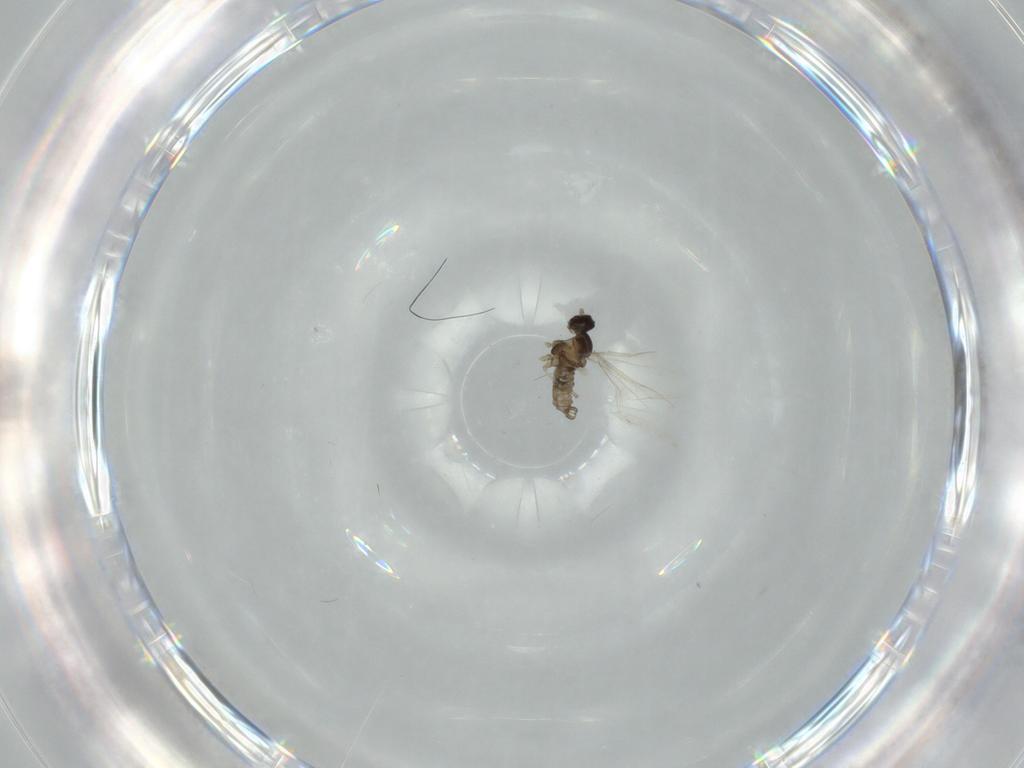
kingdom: Animalia
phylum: Arthropoda
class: Insecta
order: Diptera
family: Cecidomyiidae
